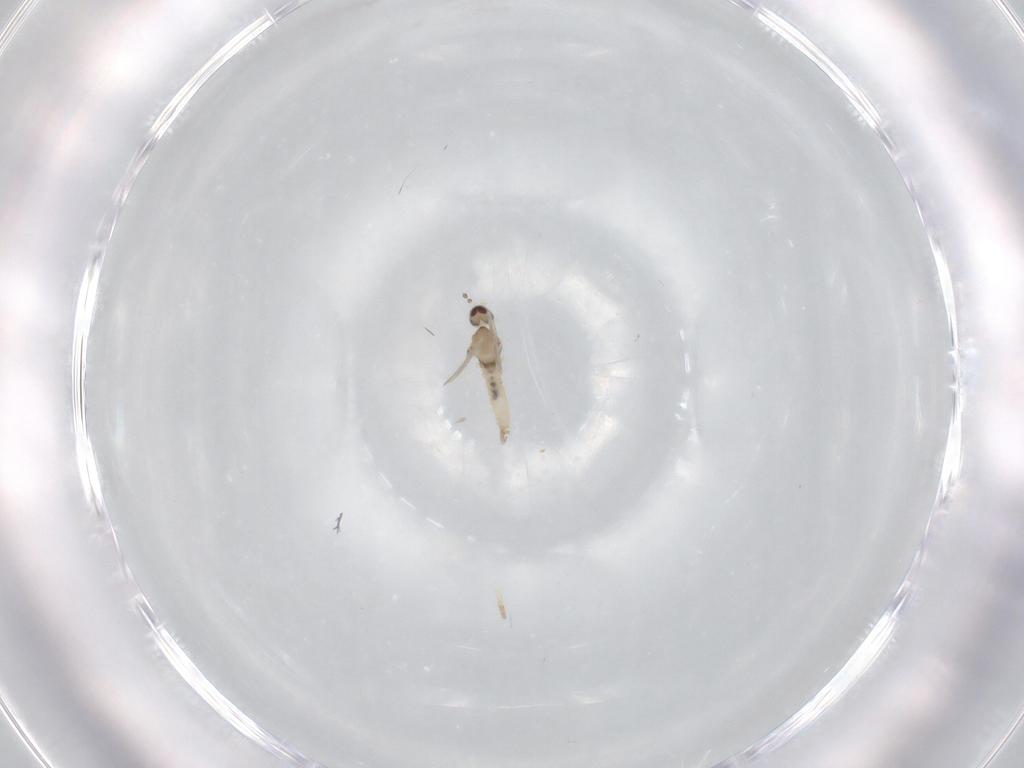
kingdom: Animalia
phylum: Arthropoda
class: Insecta
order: Diptera
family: Cecidomyiidae
